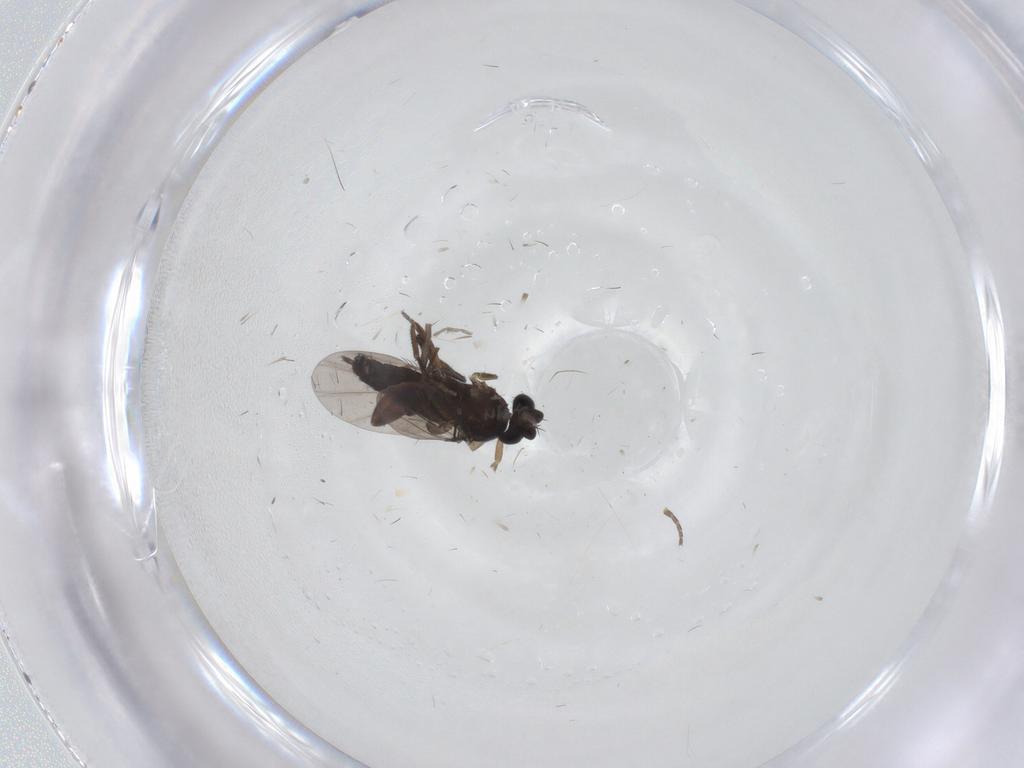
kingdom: Animalia
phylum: Arthropoda
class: Insecta
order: Diptera
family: Phoridae
